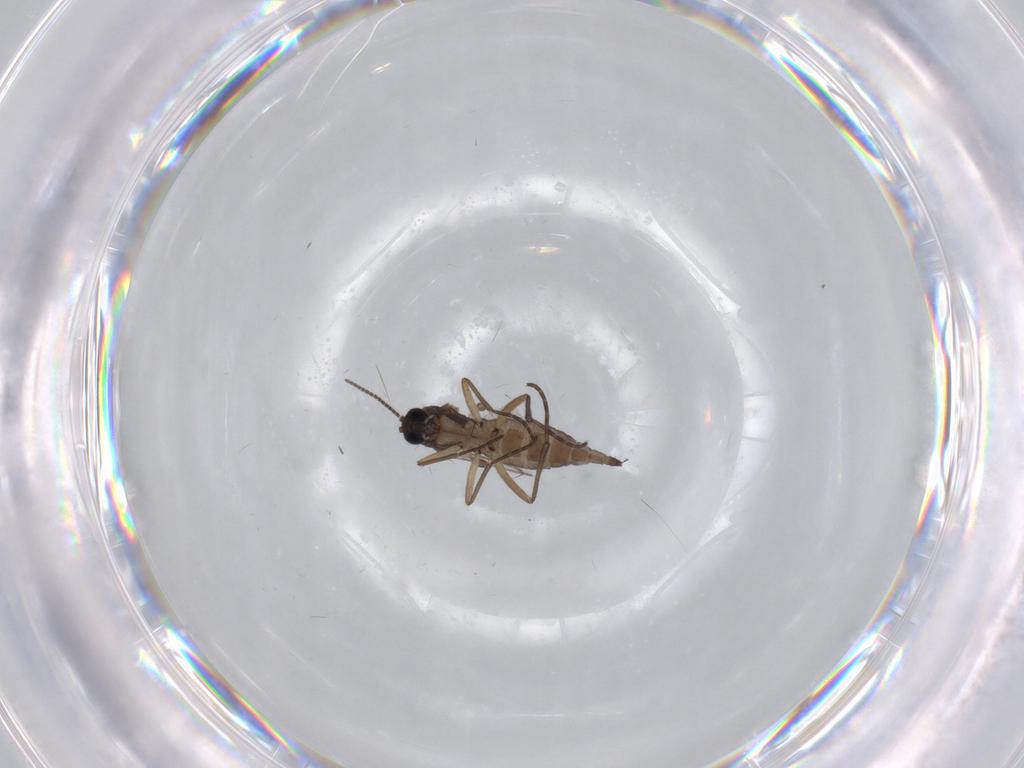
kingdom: Animalia
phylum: Arthropoda
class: Insecta
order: Diptera
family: Sciaridae
